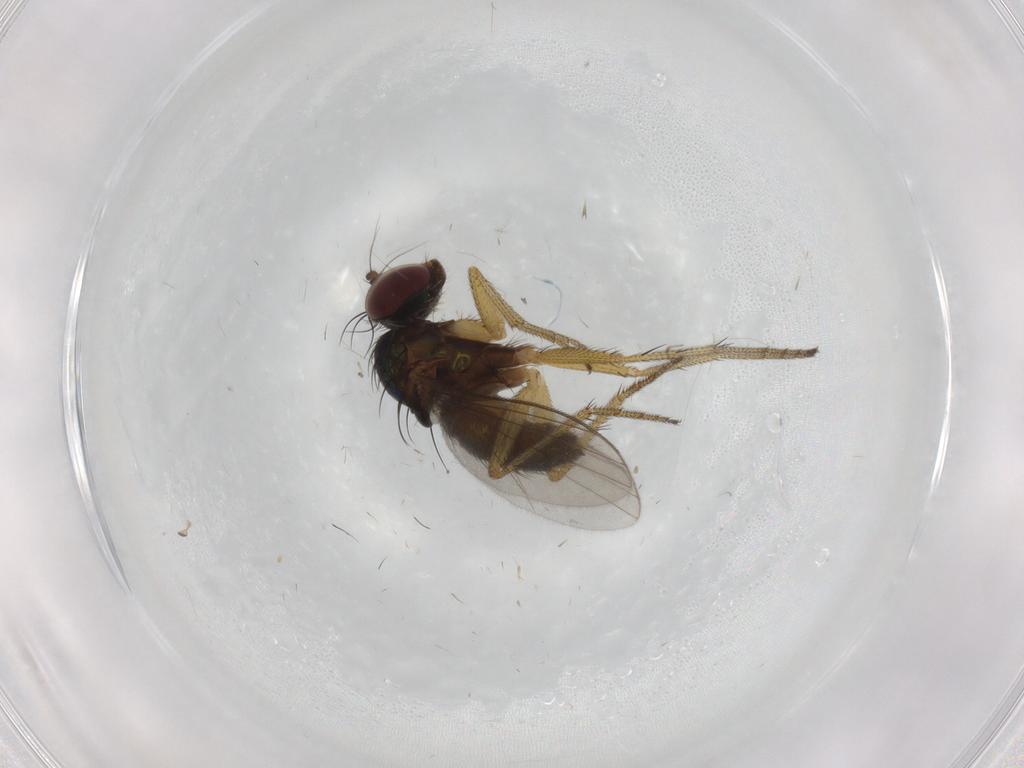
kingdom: Animalia
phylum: Arthropoda
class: Insecta
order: Diptera
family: Dolichopodidae
